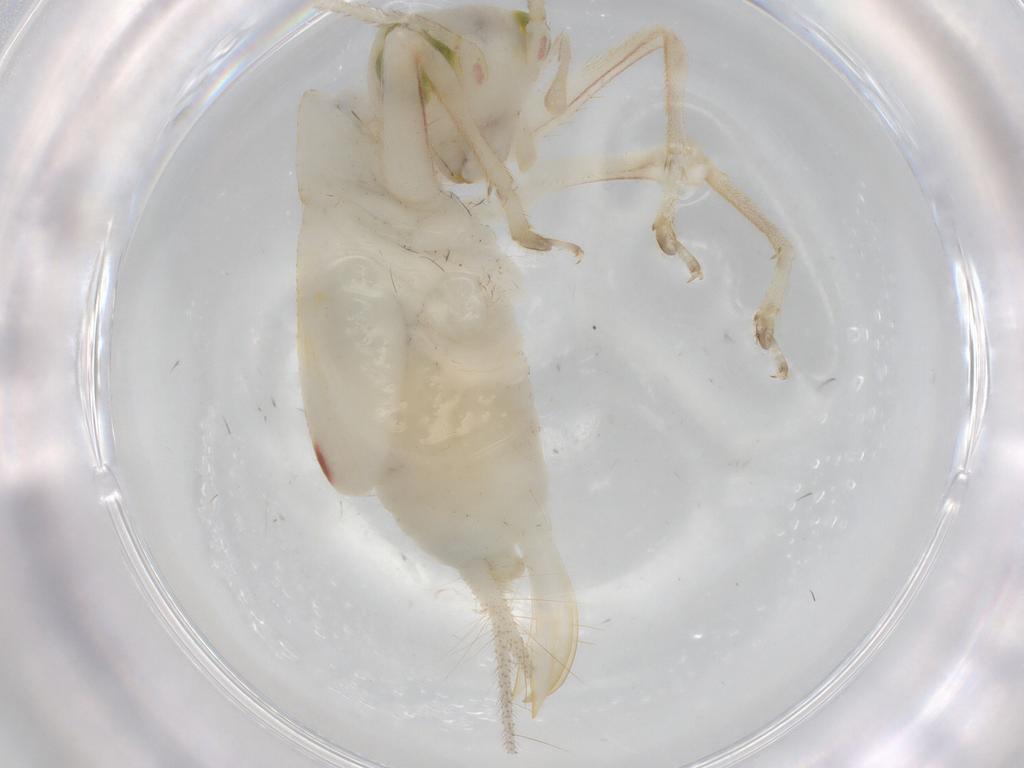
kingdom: Animalia
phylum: Arthropoda
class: Insecta
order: Orthoptera
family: Trigonidiidae
